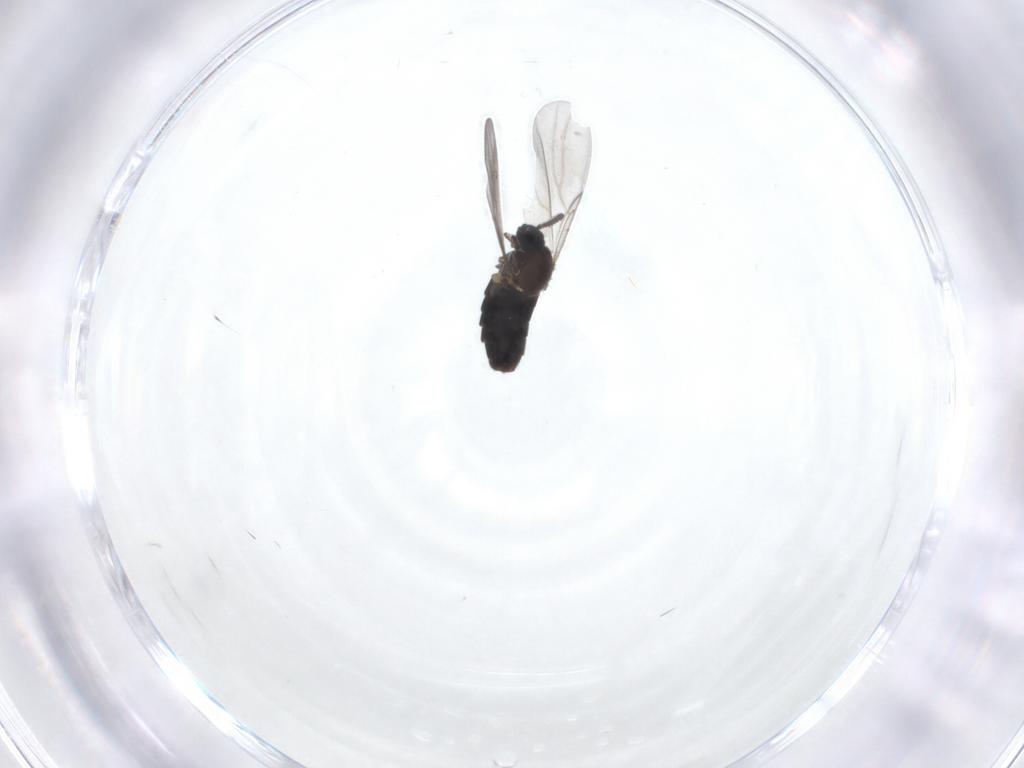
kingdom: Animalia
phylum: Arthropoda
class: Insecta
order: Diptera
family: Scatopsidae
